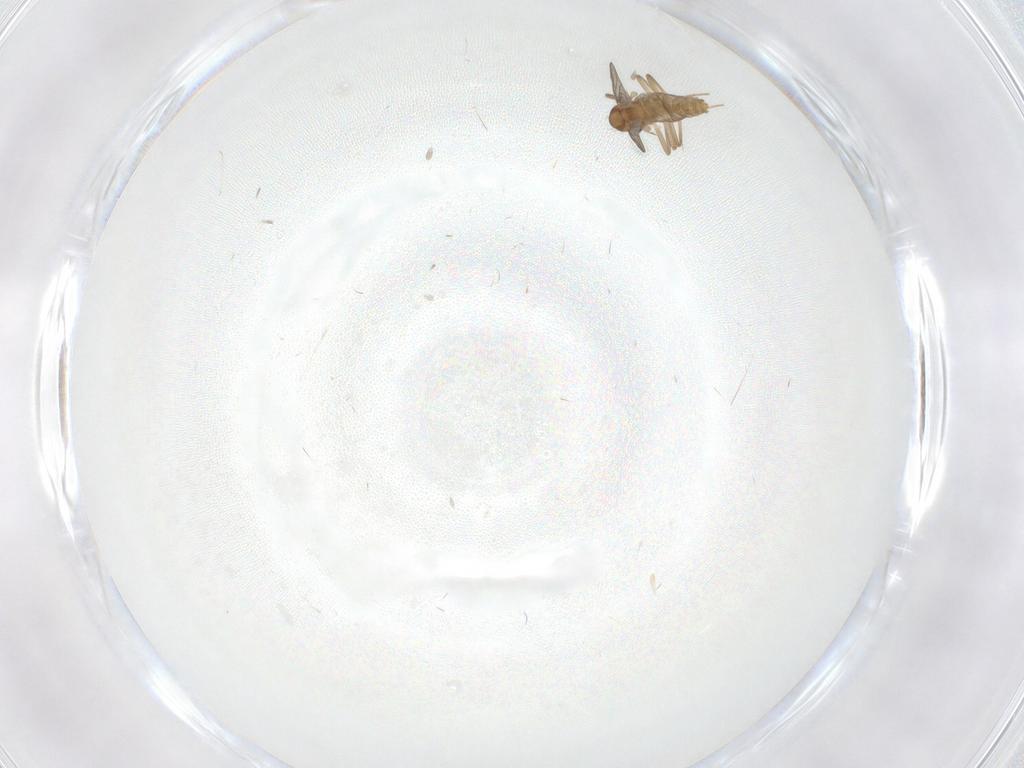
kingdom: Animalia
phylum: Arthropoda
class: Insecta
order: Diptera
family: Chironomidae
